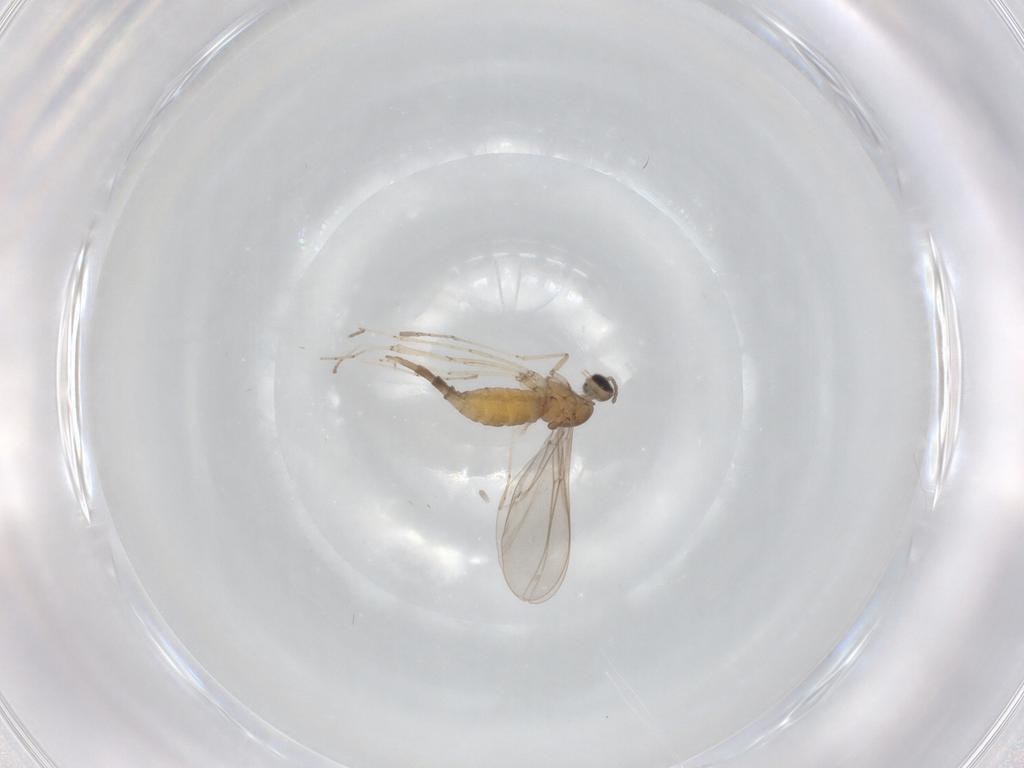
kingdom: Animalia
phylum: Arthropoda
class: Insecta
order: Diptera
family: Cecidomyiidae
